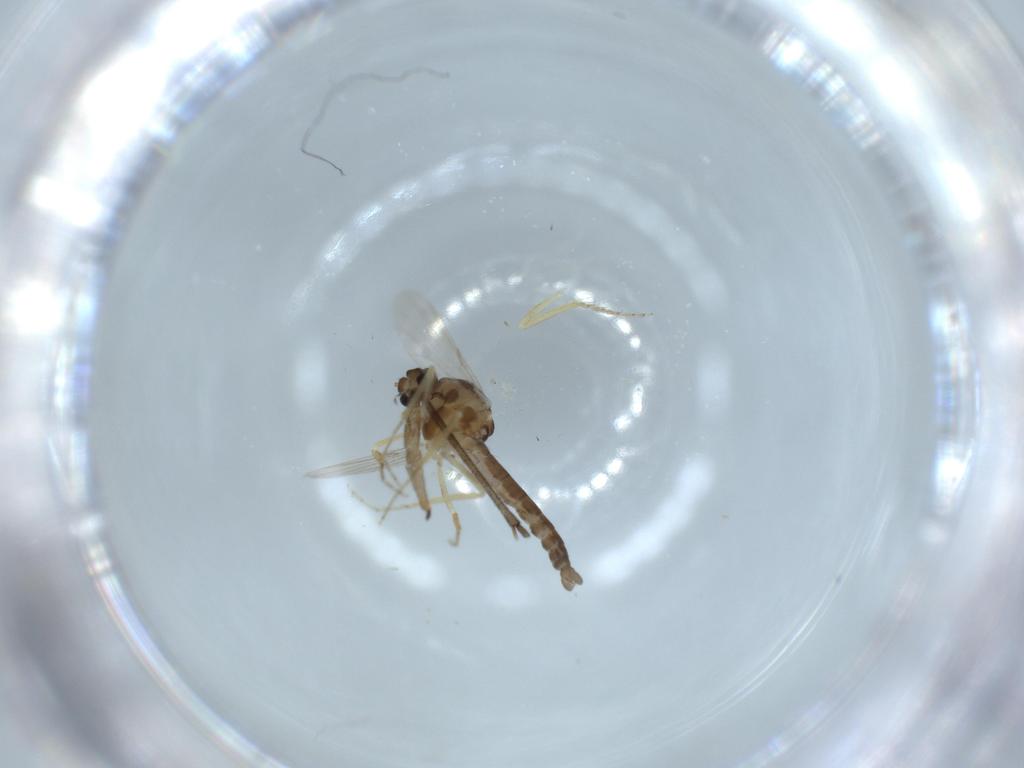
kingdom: Animalia
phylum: Arthropoda
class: Insecta
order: Diptera
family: Ceratopogonidae
